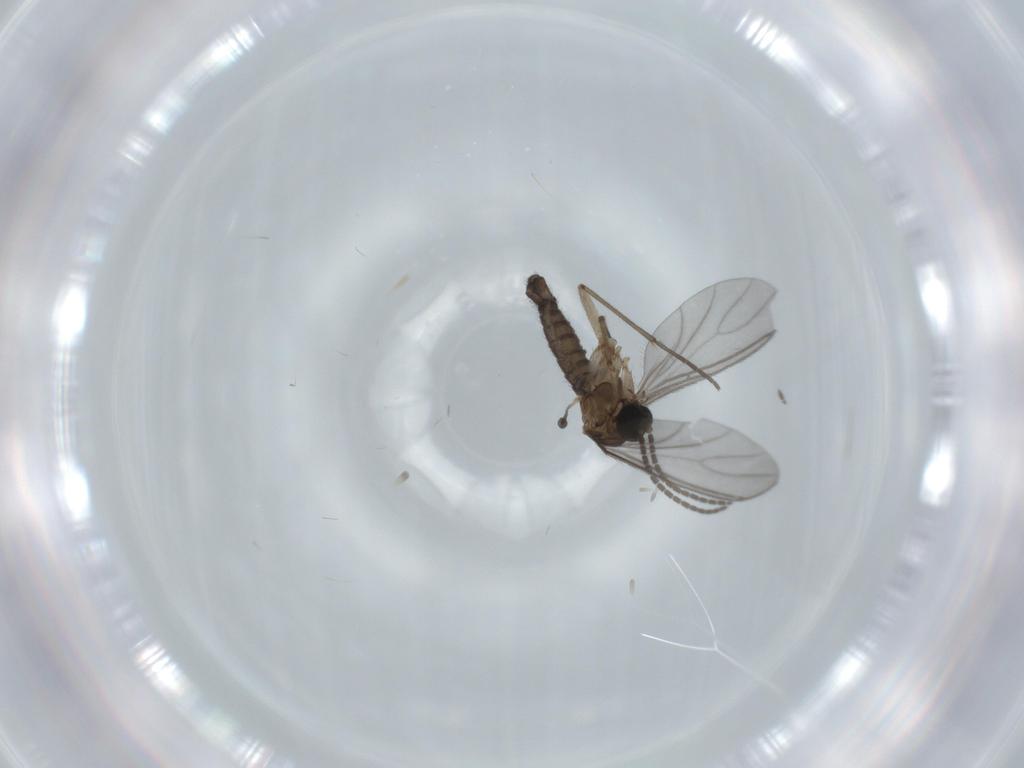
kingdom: Animalia
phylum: Arthropoda
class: Insecta
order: Diptera
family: Sciaridae
